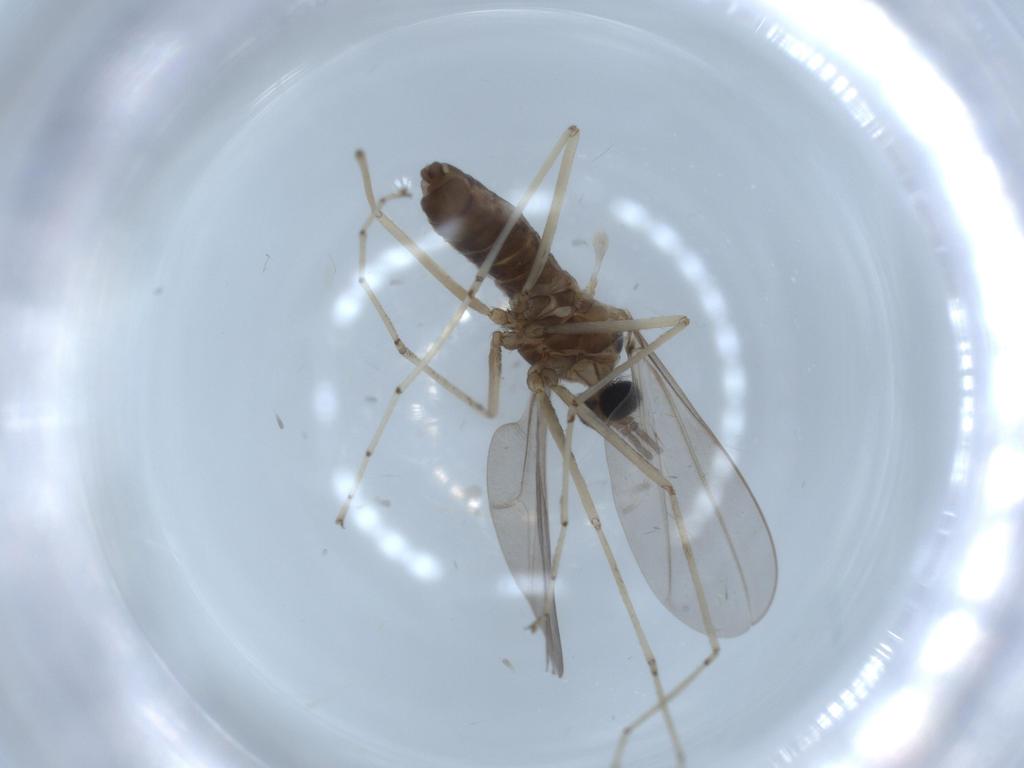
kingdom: Animalia
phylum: Arthropoda
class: Insecta
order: Diptera
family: Cecidomyiidae
